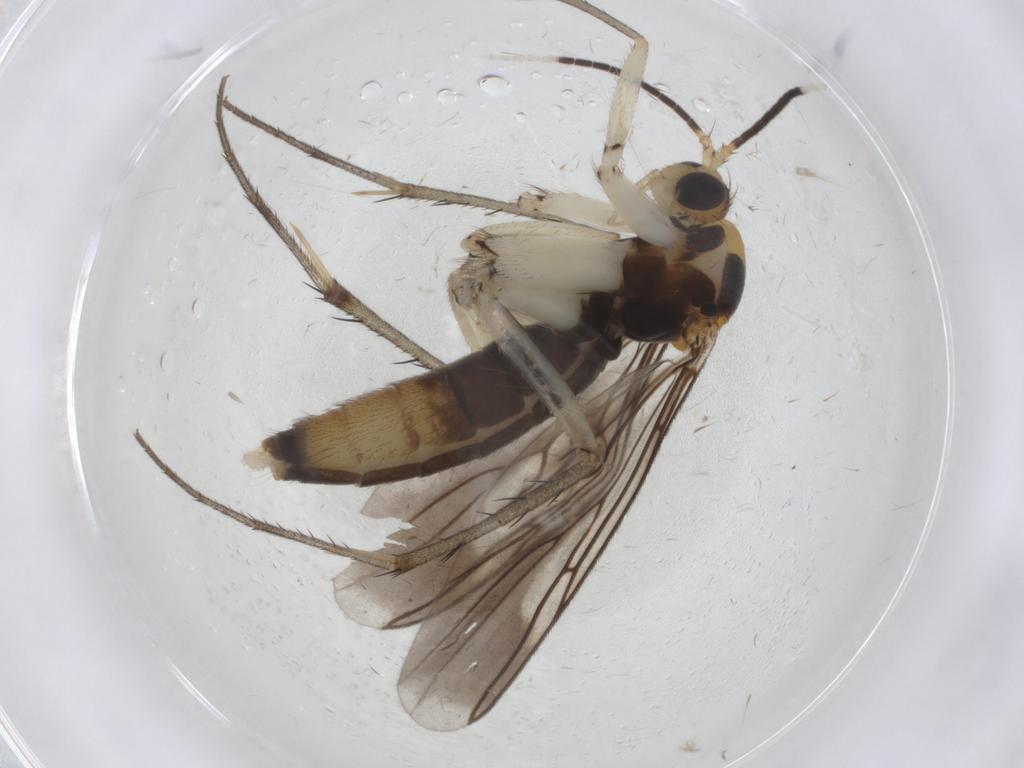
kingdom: Animalia
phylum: Arthropoda
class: Insecta
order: Diptera
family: Mycetophilidae
